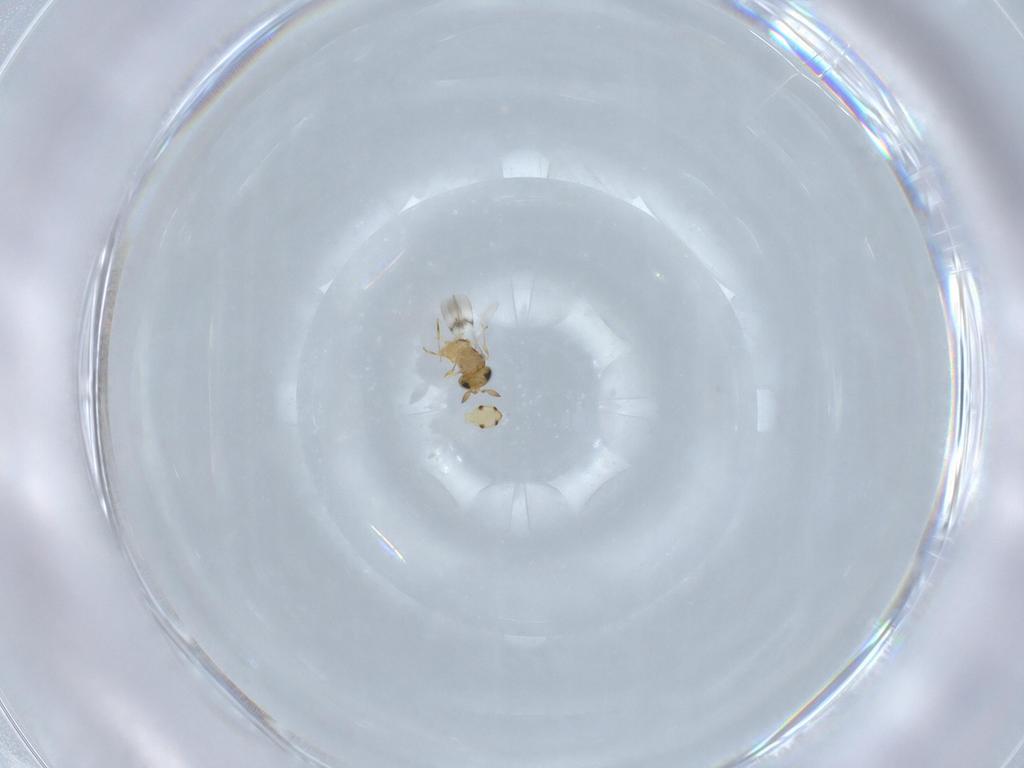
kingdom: Animalia
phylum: Arthropoda
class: Insecta
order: Hymenoptera
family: Scelionidae
